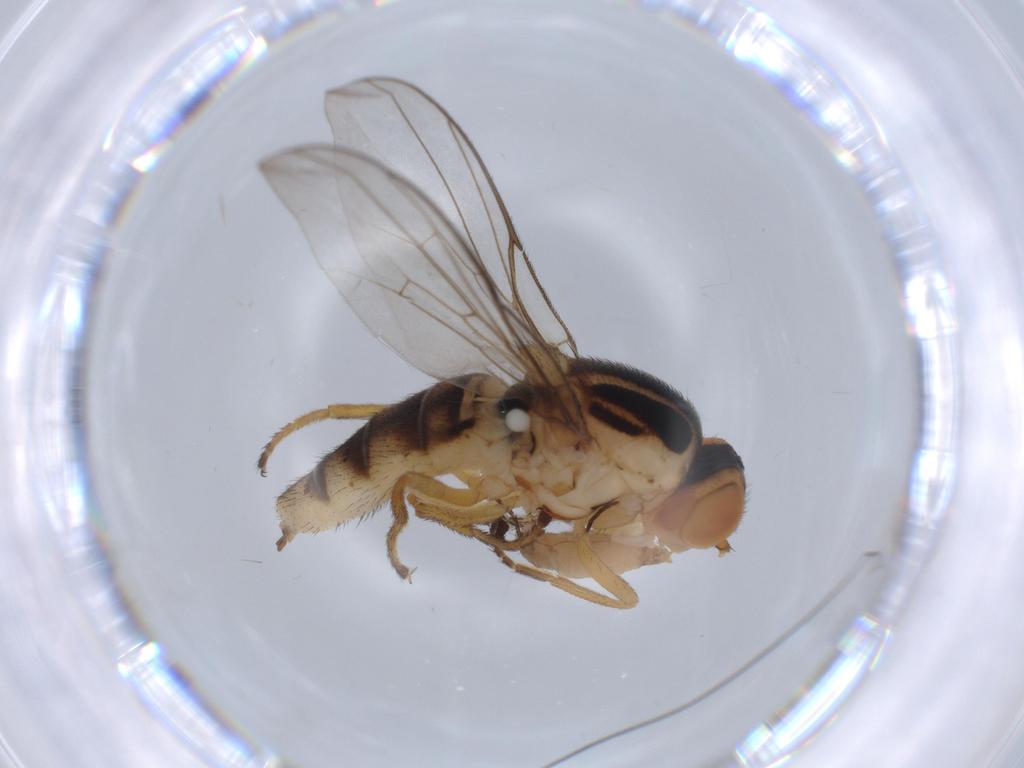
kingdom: Animalia
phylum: Arthropoda
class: Insecta
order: Diptera
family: Chloropidae
